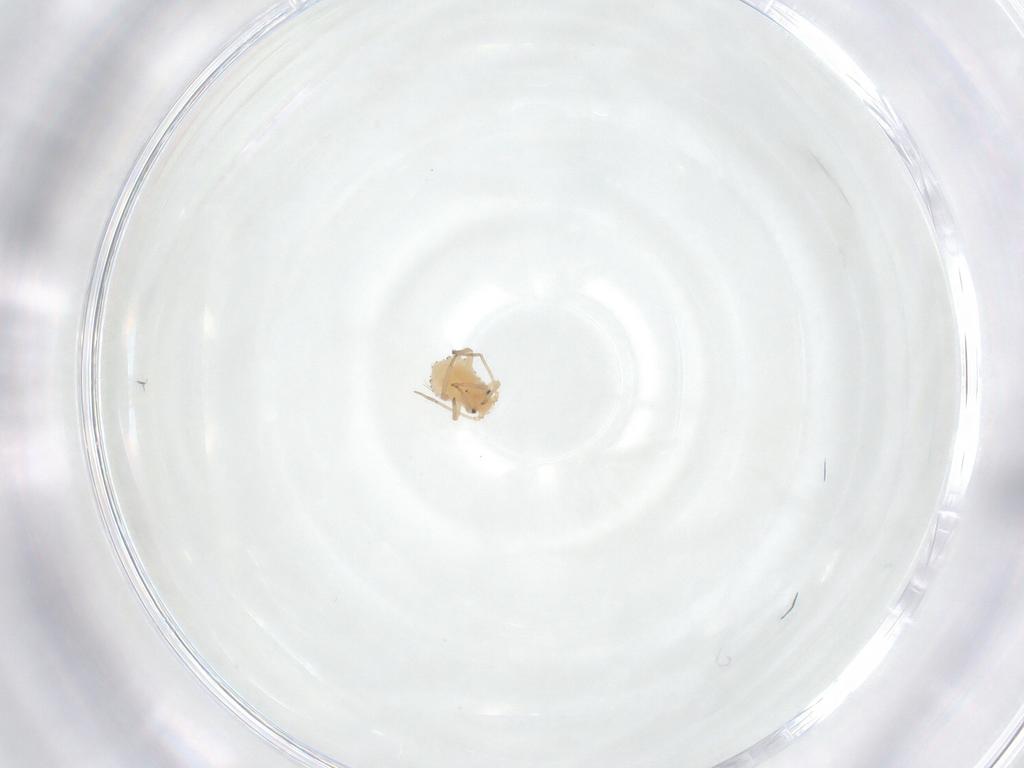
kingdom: Animalia
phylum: Arthropoda
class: Insecta
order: Hemiptera
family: Aphididae
